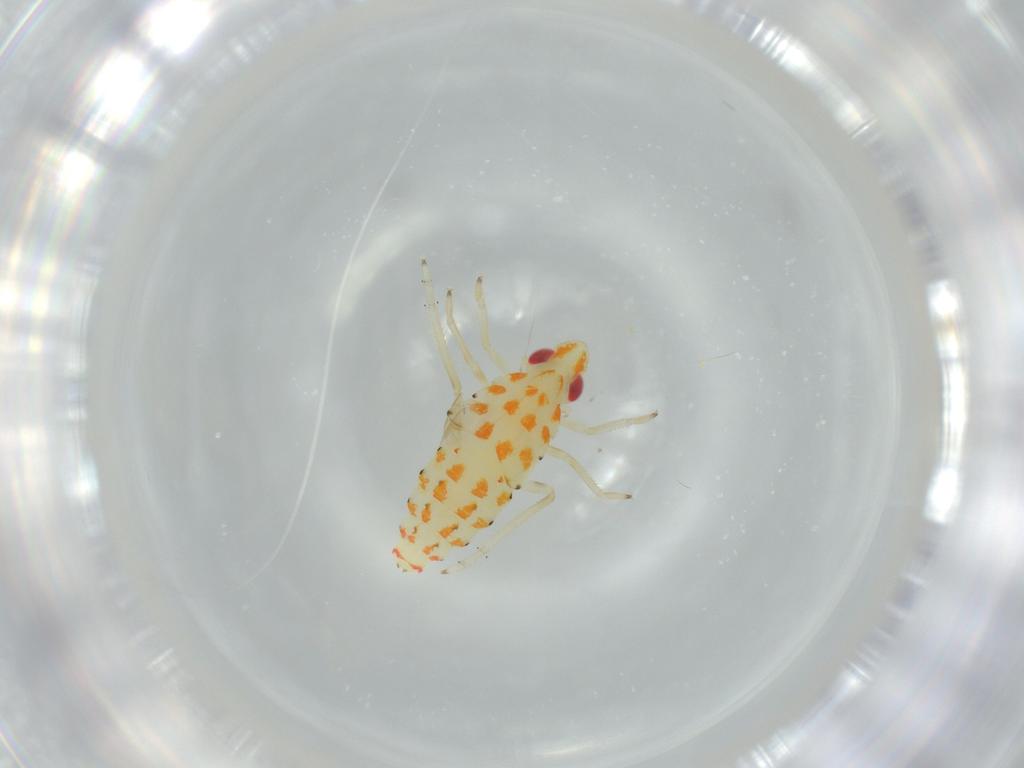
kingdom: Animalia
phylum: Arthropoda
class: Insecta
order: Hemiptera
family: Tropiduchidae
